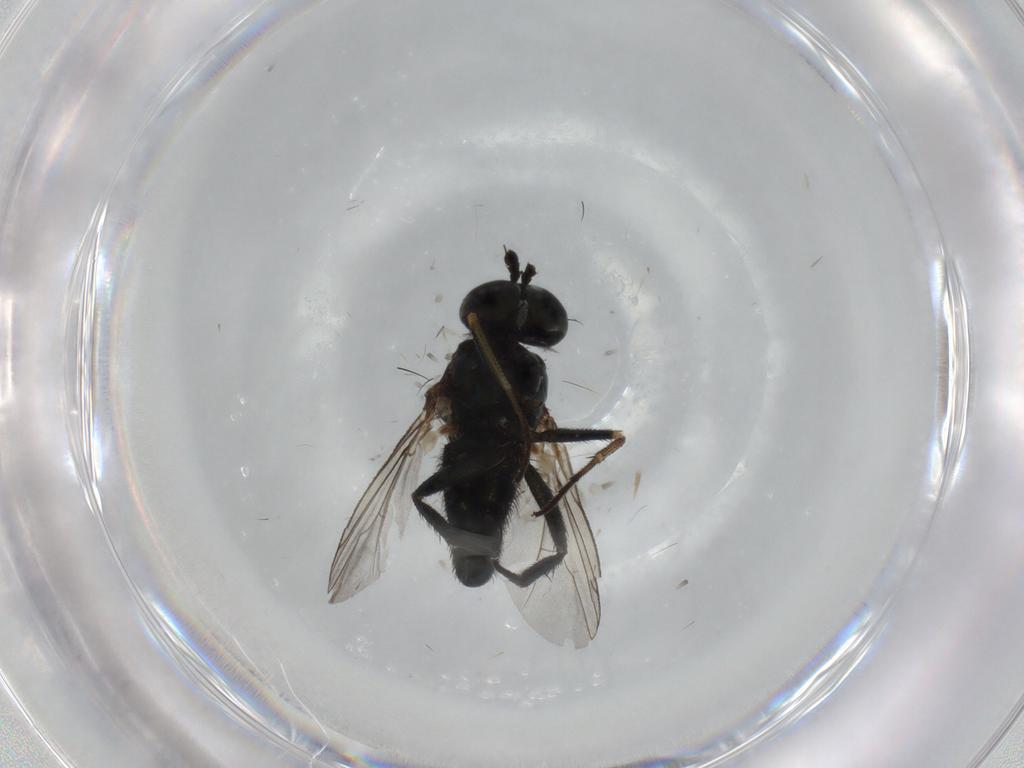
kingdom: Animalia
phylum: Arthropoda
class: Insecta
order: Diptera
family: Dolichopodidae
